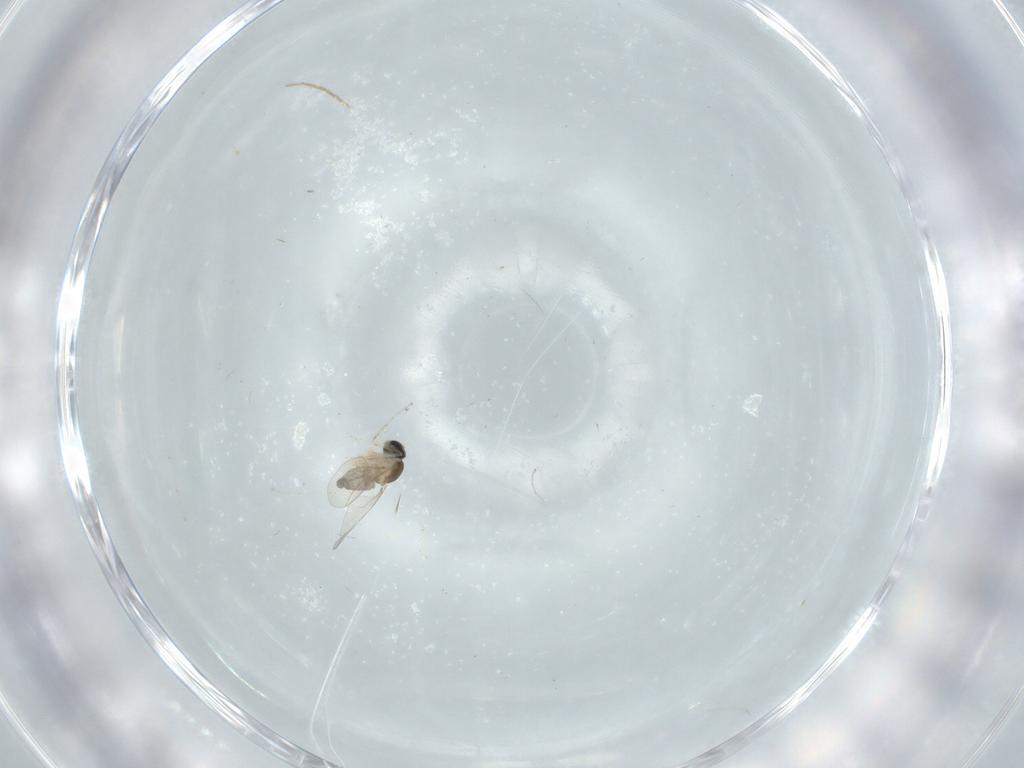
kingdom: Animalia
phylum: Arthropoda
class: Insecta
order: Diptera
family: Cecidomyiidae
